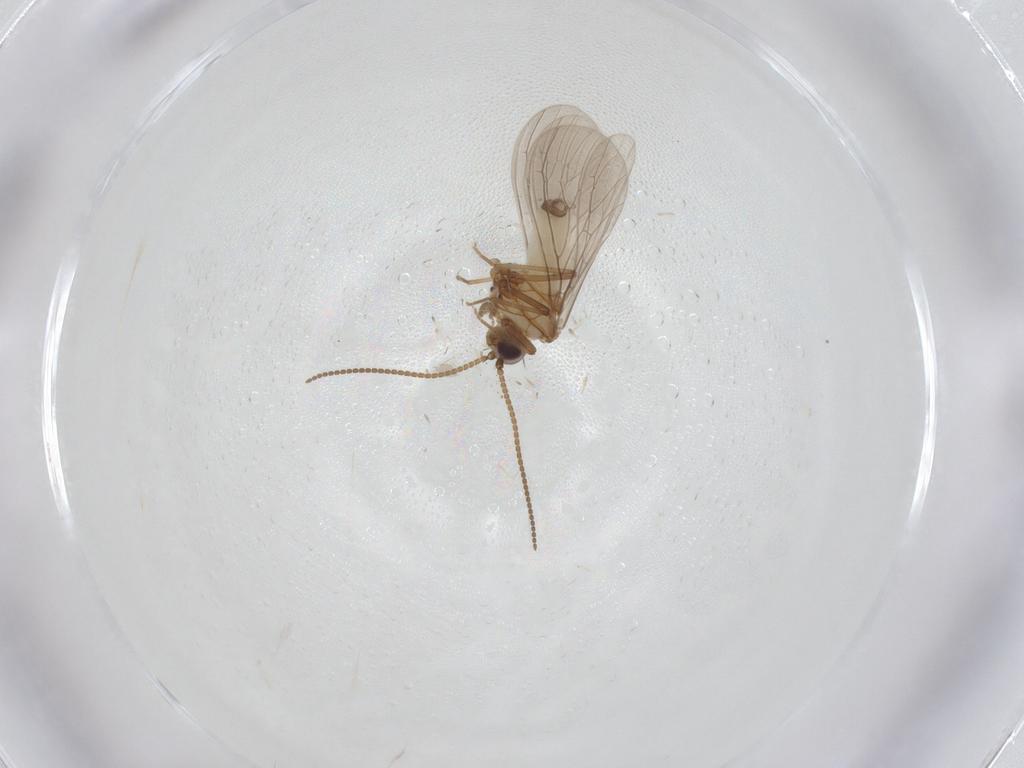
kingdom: Animalia
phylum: Arthropoda
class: Insecta
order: Neuroptera
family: Coniopterygidae
